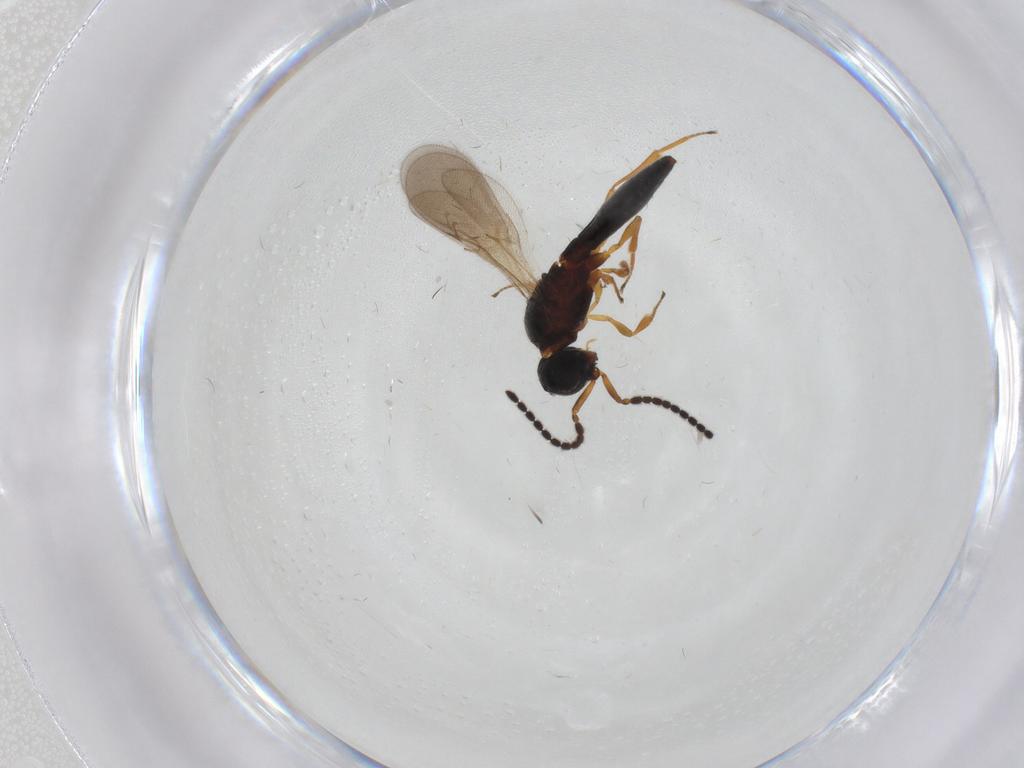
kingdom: Animalia
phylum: Arthropoda
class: Insecta
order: Hymenoptera
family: Scelionidae
